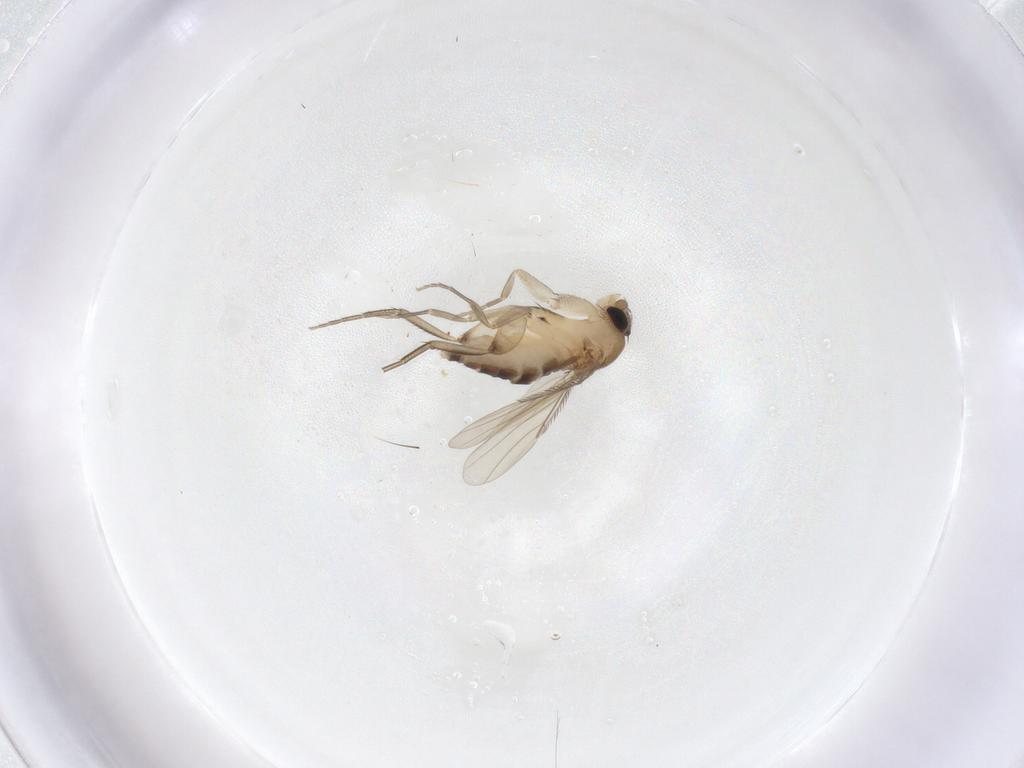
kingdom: Animalia
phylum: Arthropoda
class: Insecta
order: Diptera
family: Phoridae
